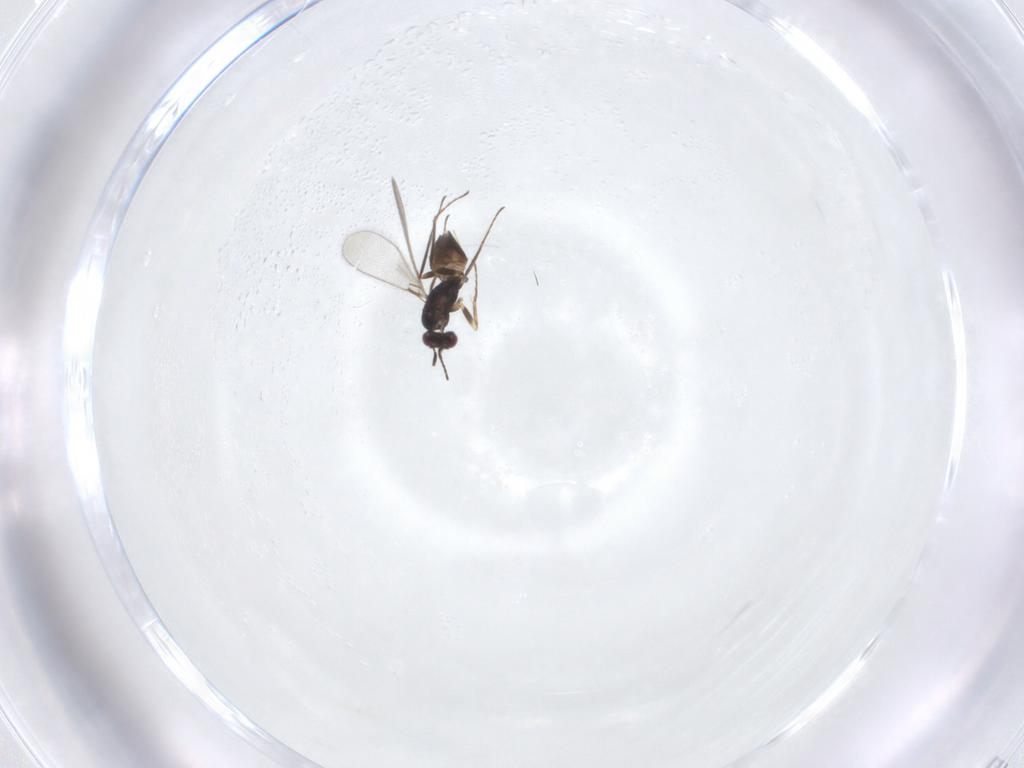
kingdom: Animalia
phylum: Arthropoda
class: Insecta
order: Hymenoptera
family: Mymaridae
